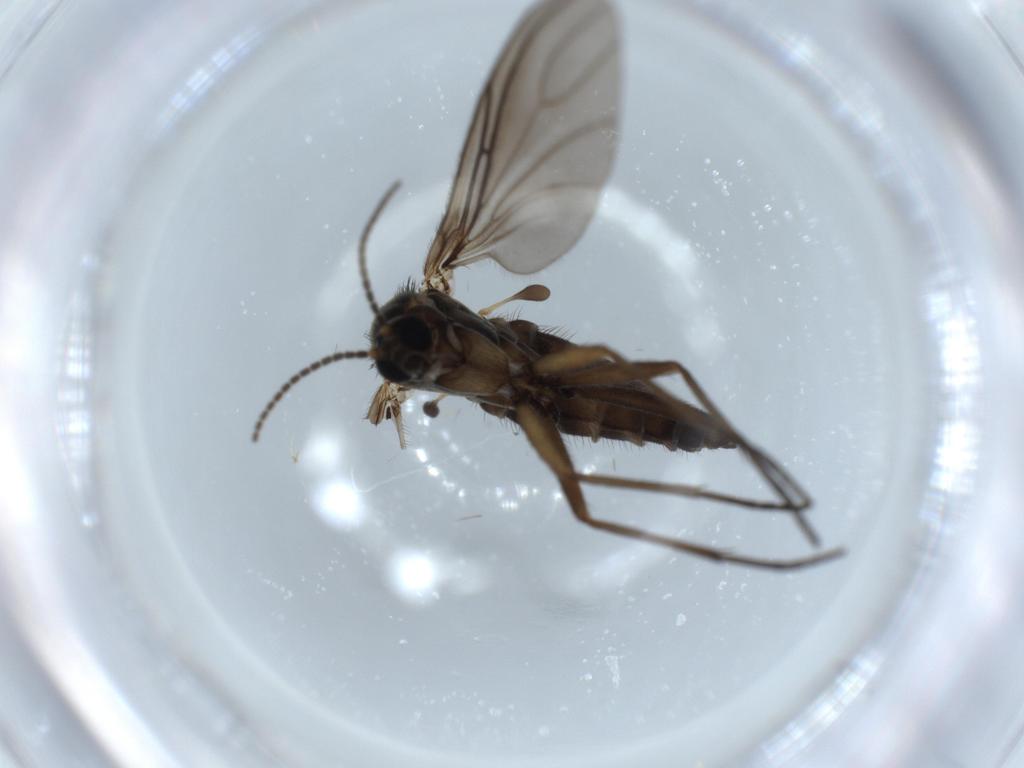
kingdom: Animalia
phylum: Arthropoda
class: Insecta
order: Diptera
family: Sciaridae
